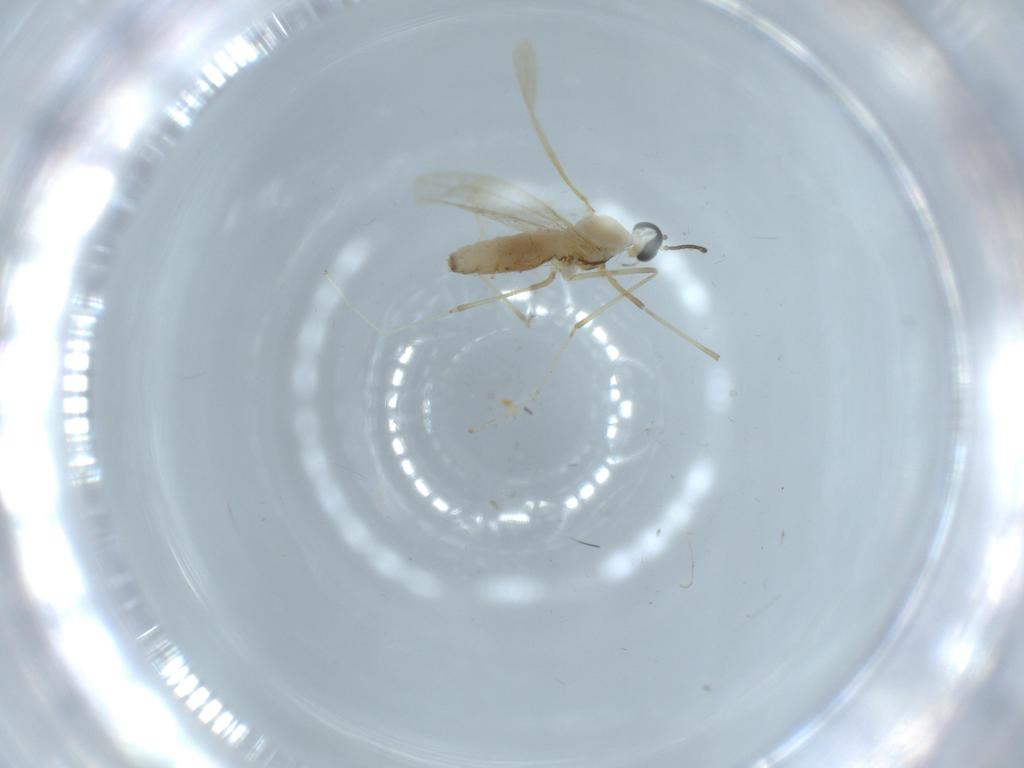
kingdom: Animalia
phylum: Arthropoda
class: Insecta
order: Diptera
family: Cecidomyiidae
